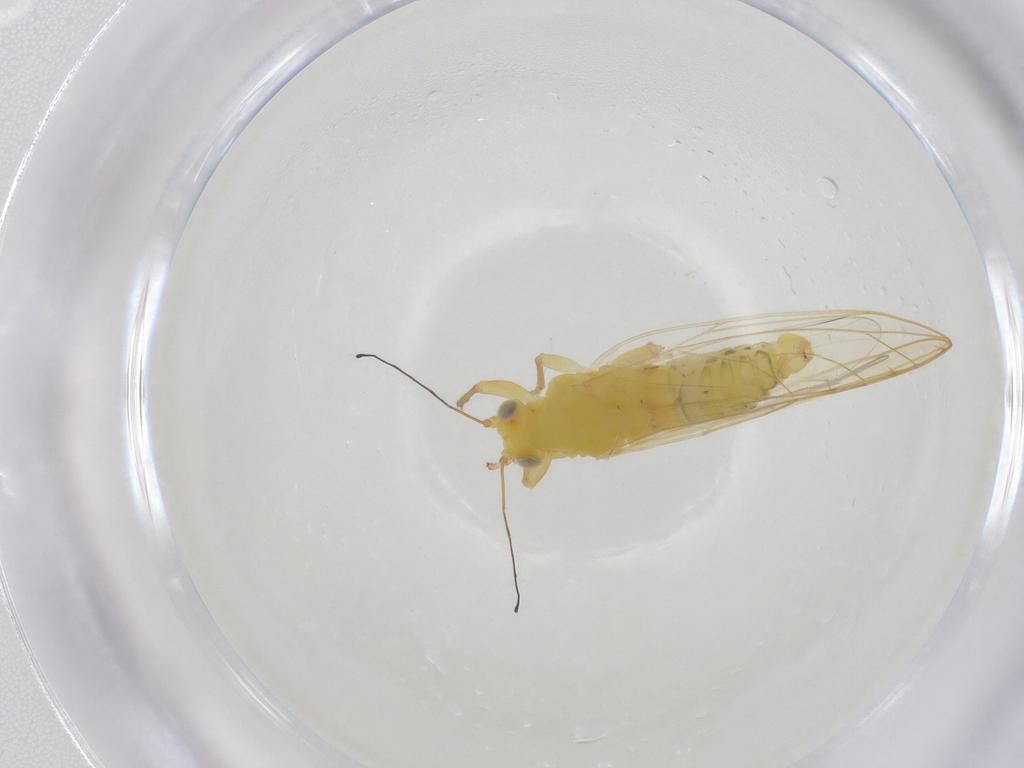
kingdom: Animalia
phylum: Arthropoda
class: Insecta
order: Hemiptera
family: Triozidae
